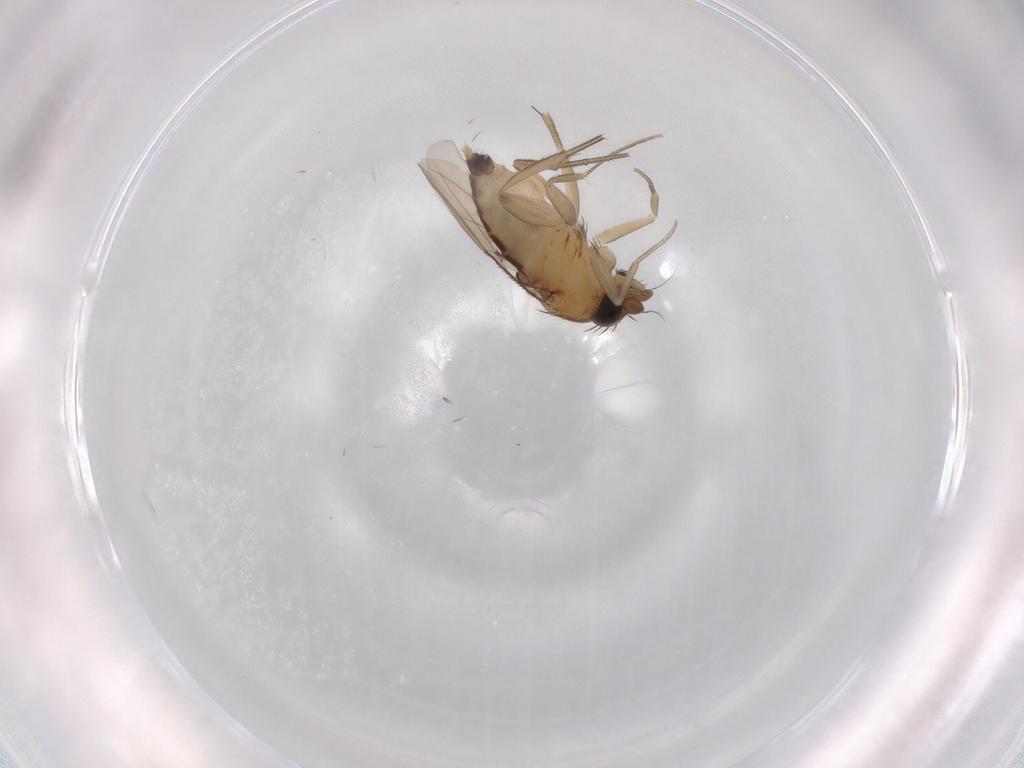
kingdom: Animalia
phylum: Arthropoda
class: Insecta
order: Diptera
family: Phoridae
